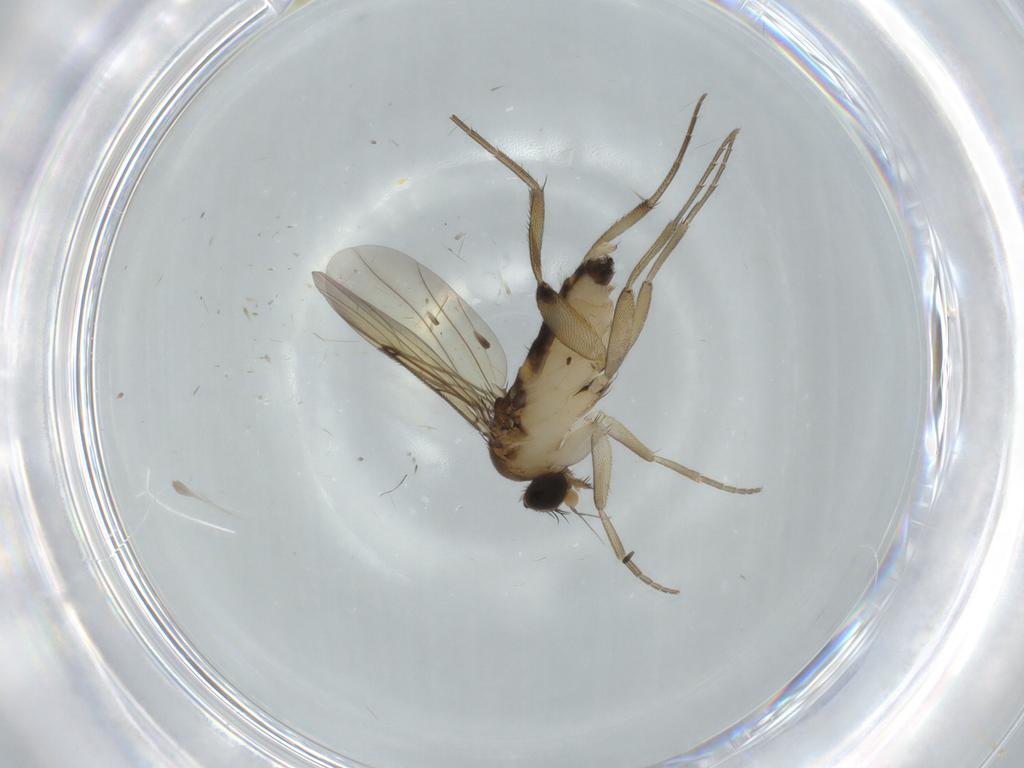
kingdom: Animalia
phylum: Arthropoda
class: Insecta
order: Diptera
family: Phoridae
